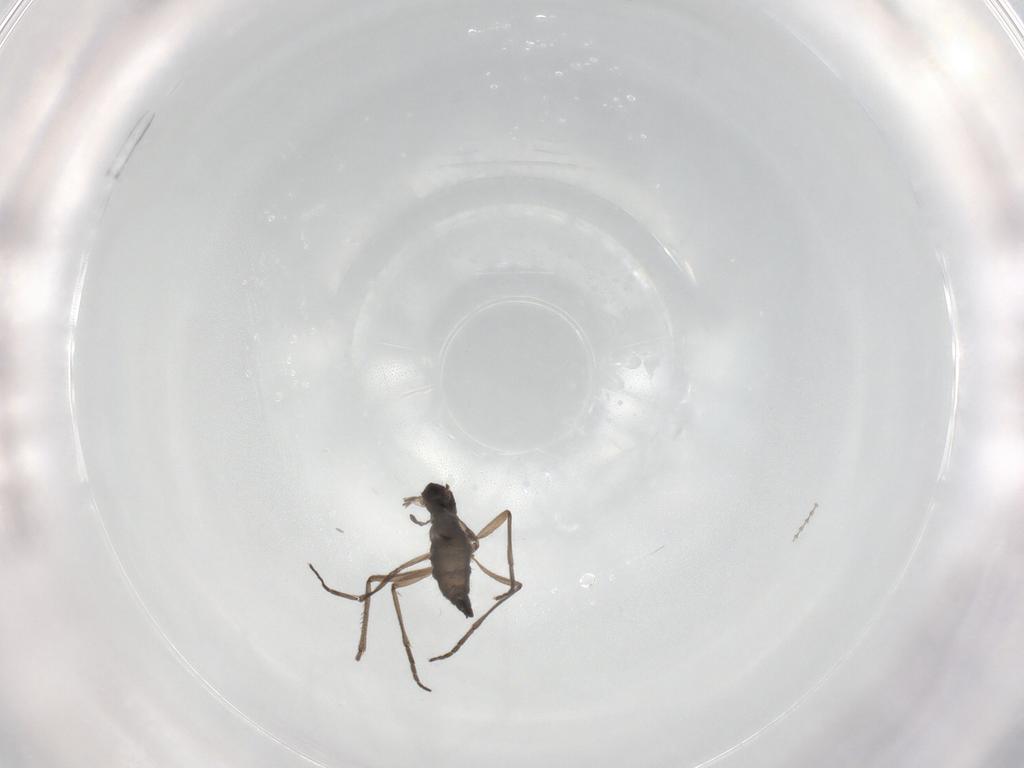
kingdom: Animalia
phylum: Arthropoda
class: Insecta
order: Diptera
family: Cecidomyiidae
